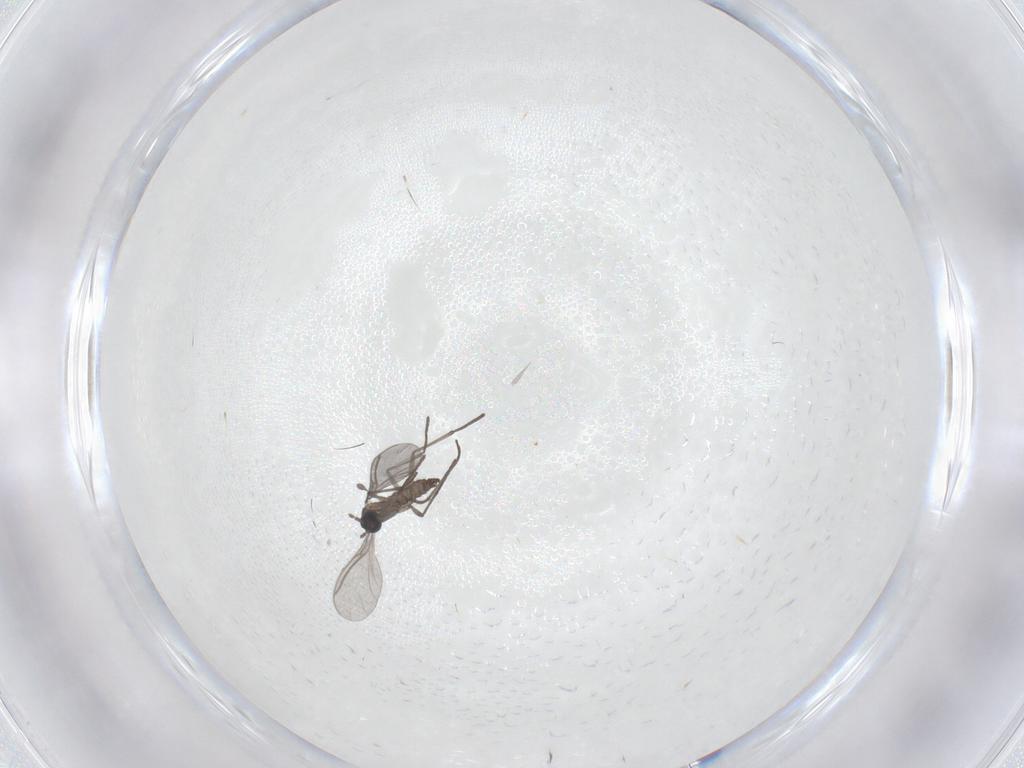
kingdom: Animalia
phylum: Arthropoda
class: Insecta
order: Diptera
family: Sciaridae
